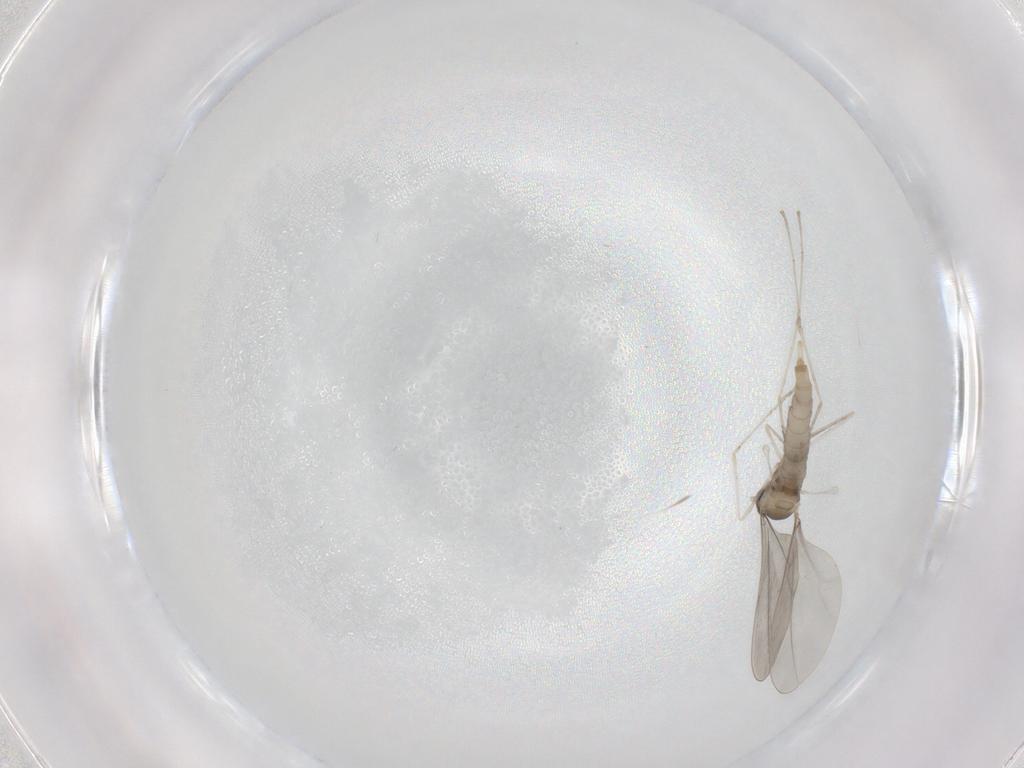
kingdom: Animalia
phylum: Arthropoda
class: Insecta
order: Diptera
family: Cecidomyiidae
